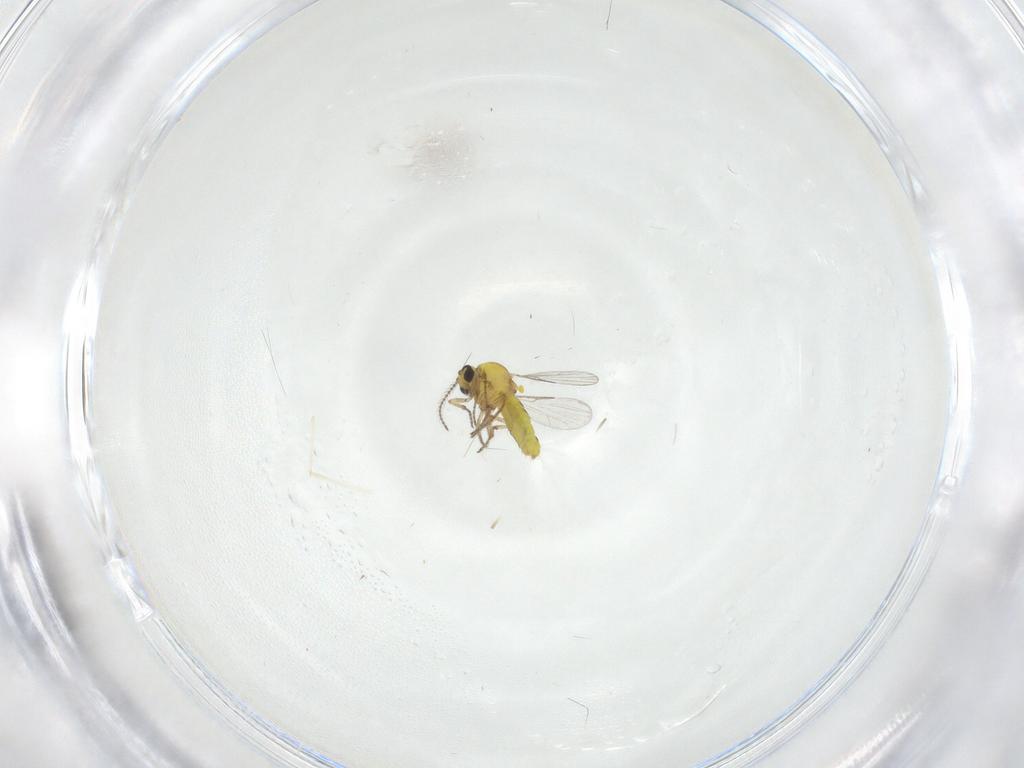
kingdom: Animalia
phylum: Arthropoda
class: Insecta
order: Diptera
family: Ceratopogonidae
